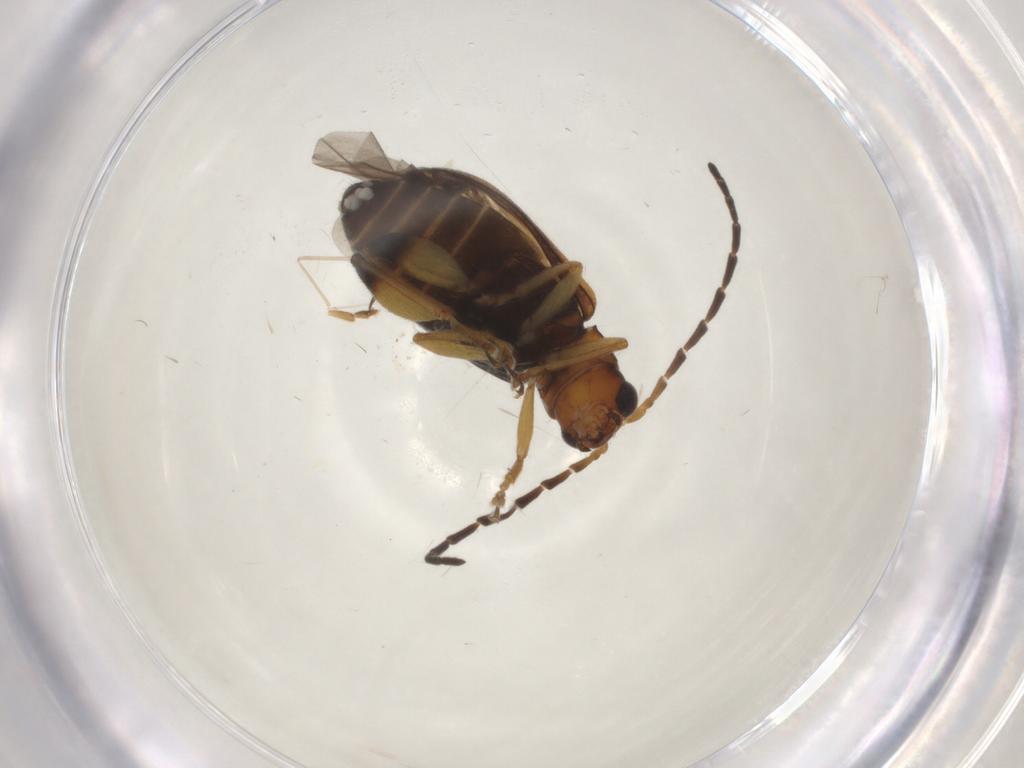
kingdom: Animalia
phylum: Arthropoda
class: Insecta
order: Coleoptera
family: Chrysomelidae
